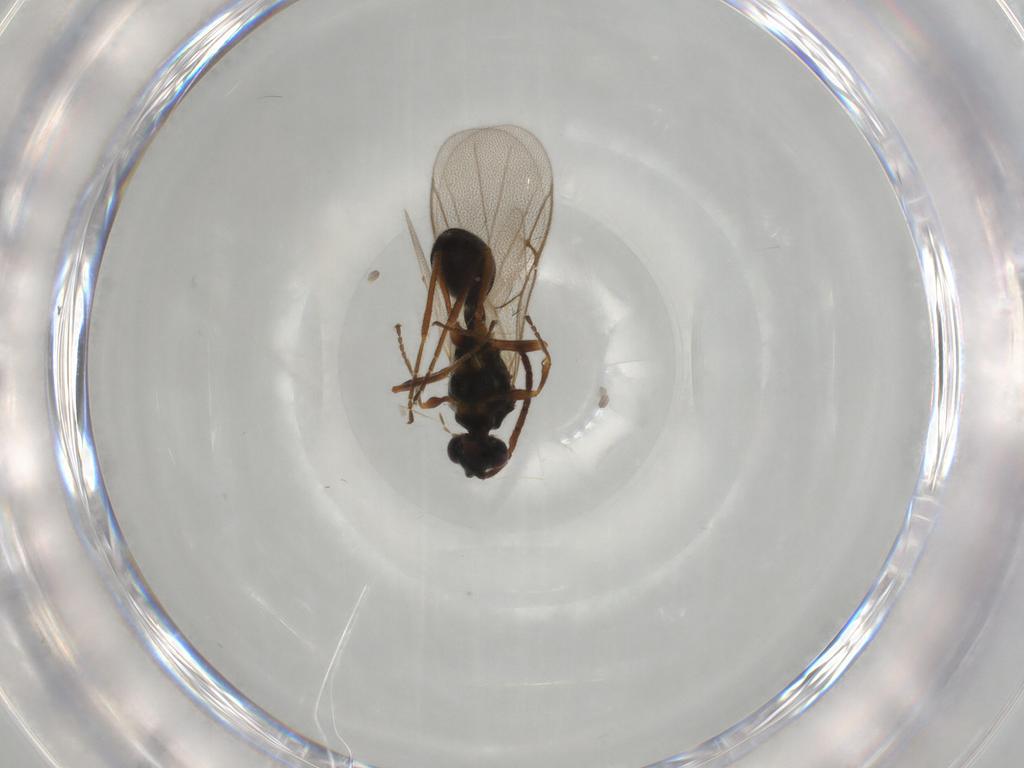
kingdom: Animalia
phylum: Arthropoda
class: Insecta
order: Hymenoptera
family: Diapriidae
